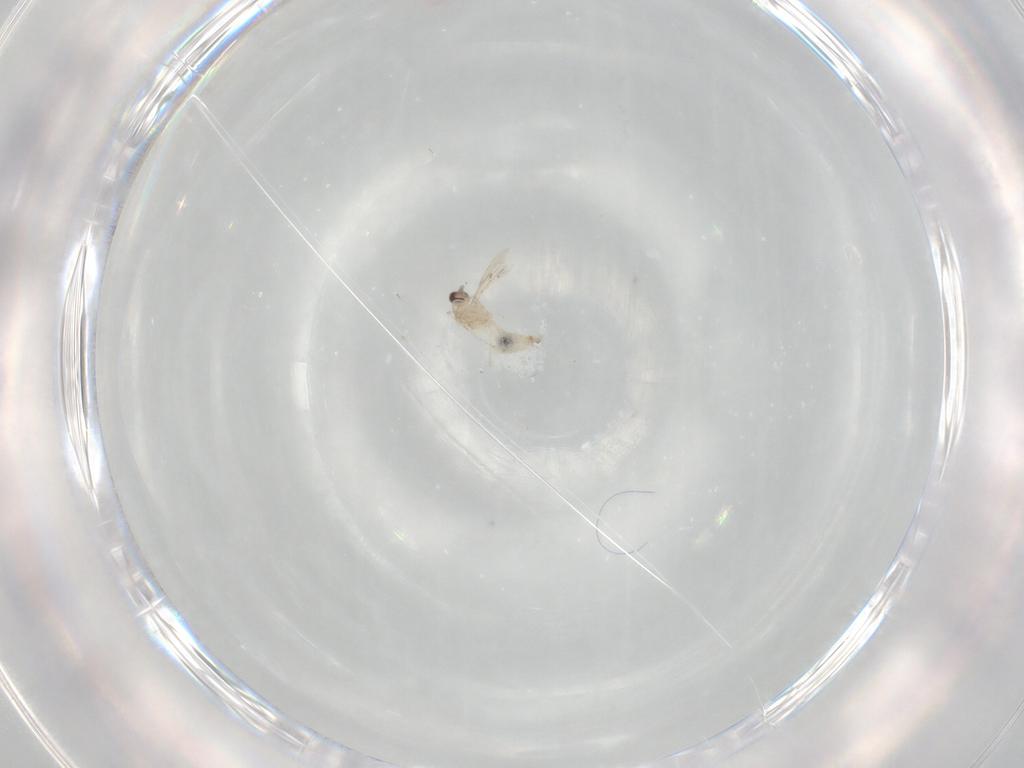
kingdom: Animalia
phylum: Arthropoda
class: Insecta
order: Diptera
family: Cecidomyiidae
